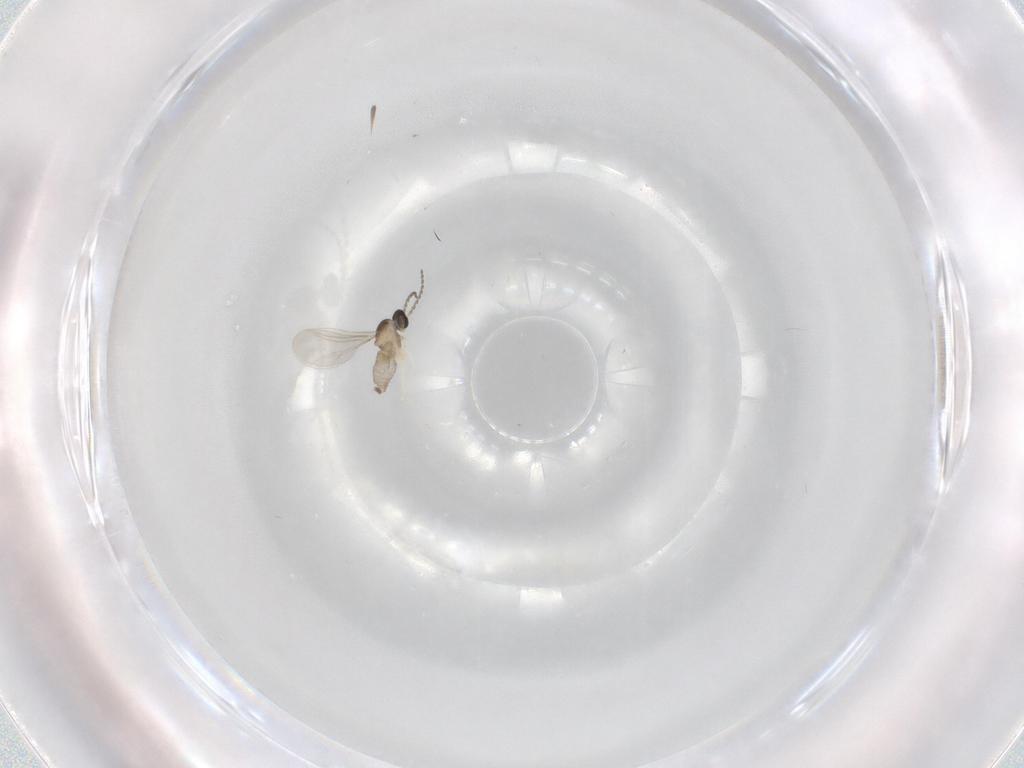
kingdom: Animalia
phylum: Arthropoda
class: Insecta
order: Diptera
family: Cecidomyiidae
